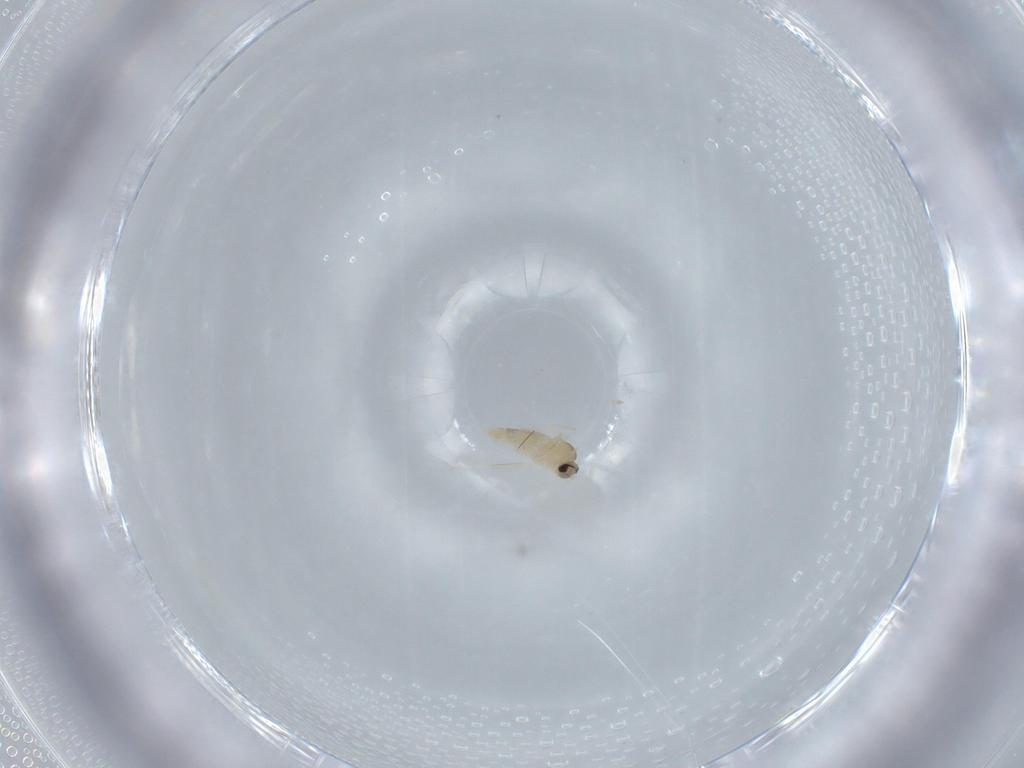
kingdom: Animalia
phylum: Arthropoda
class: Insecta
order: Diptera
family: Cecidomyiidae
